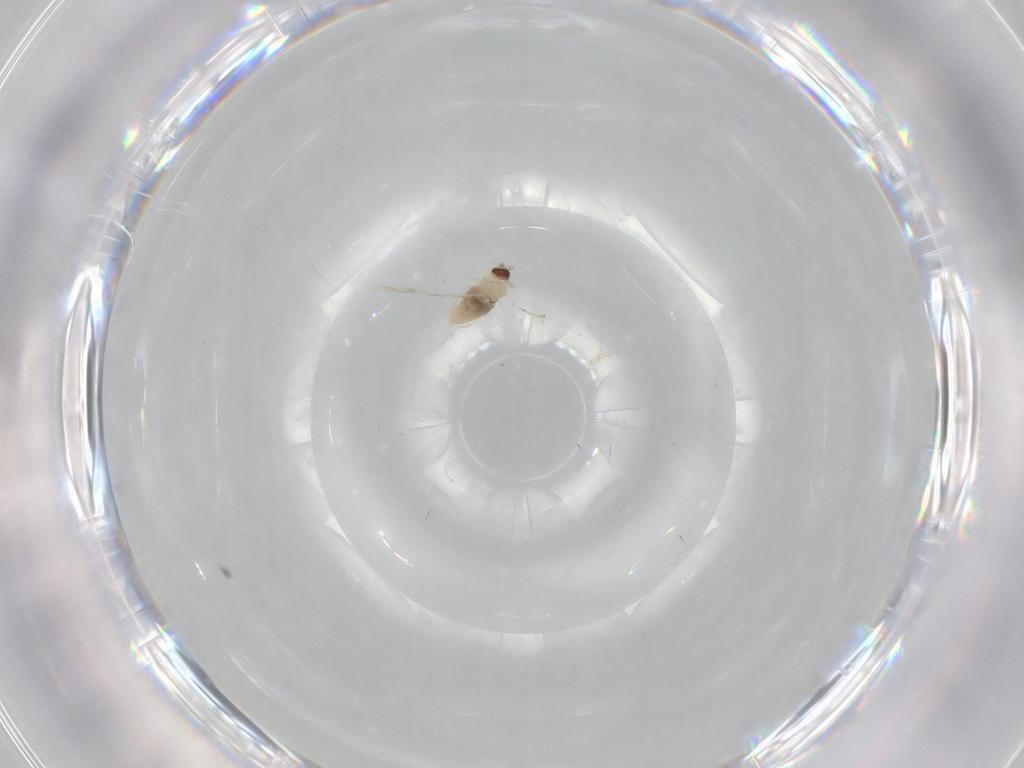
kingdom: Animalia
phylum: Arthropoda
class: Insecta
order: Diptera
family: Cecidomyiidae
